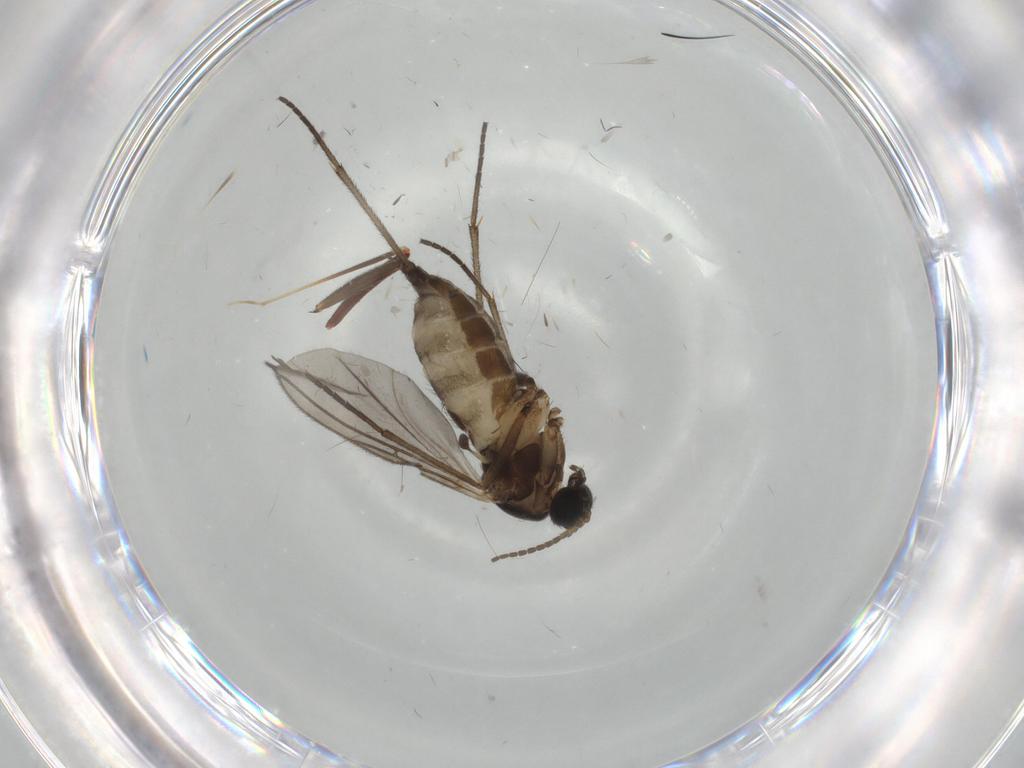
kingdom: Animalia
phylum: Arthropoda
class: Insecta
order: Diptera
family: Sciaridae
